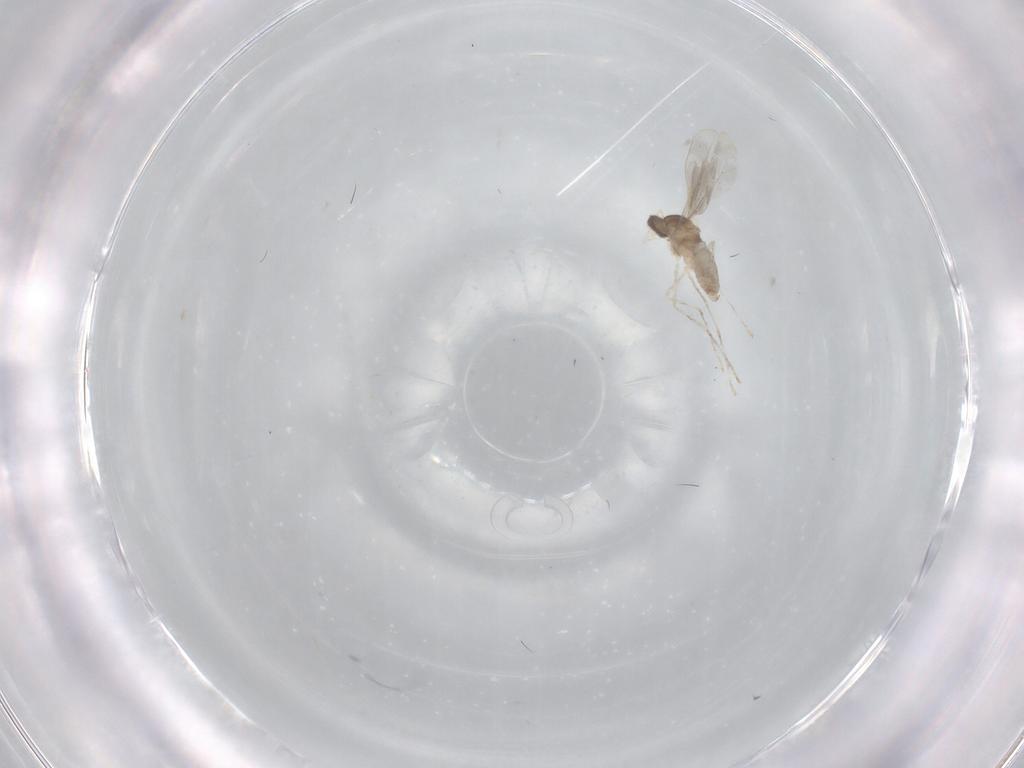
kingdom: Animalia
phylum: Arthropoda
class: Insecta
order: Diptera
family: Cecidomyiidae
